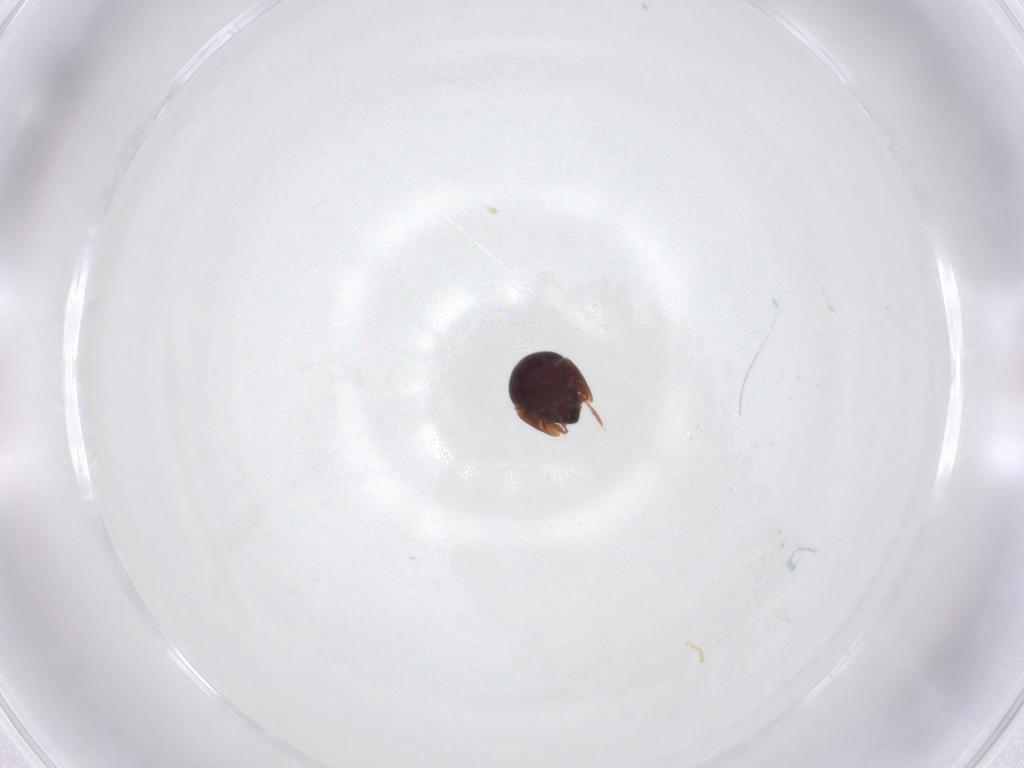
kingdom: Animalia
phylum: Arthropoda
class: Arachnida
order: Sarcoptiformes
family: Galumnidae
